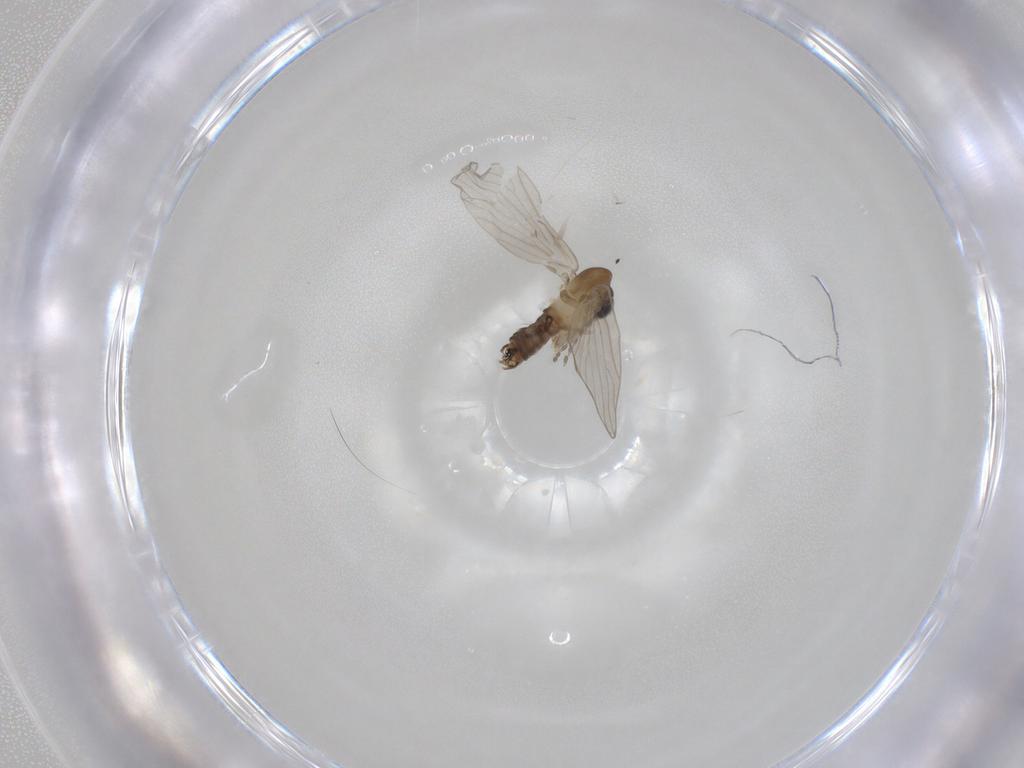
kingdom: Animalia
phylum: Arthropoda
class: Insecta
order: Diptera
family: Psychodidae
